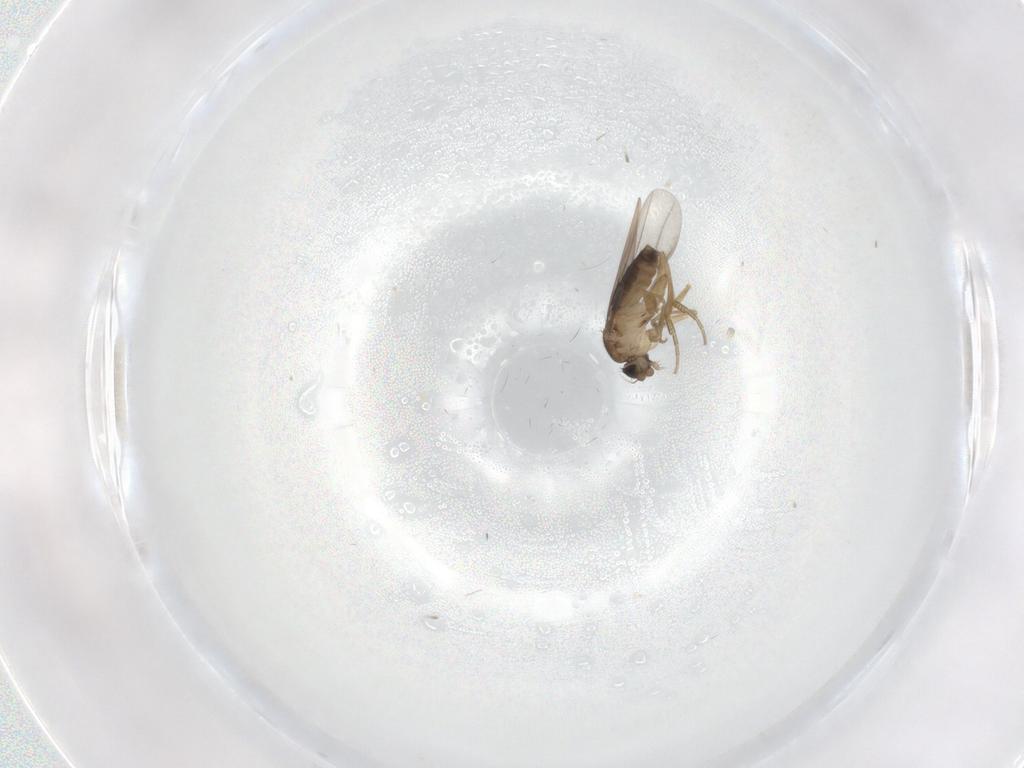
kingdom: Animalia
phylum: Arthropoda
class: Insecta
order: Diptera
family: Phoridae
